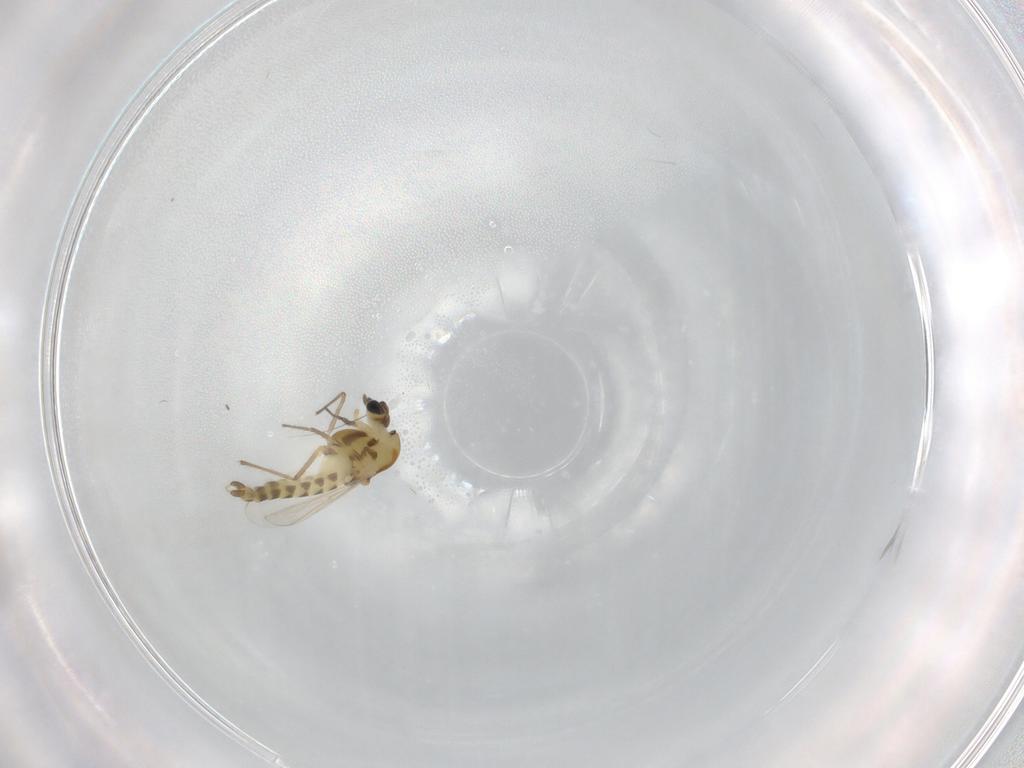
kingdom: Animalia
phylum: Arthropoda
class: Insecta
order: Diptera
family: Chironomidae
